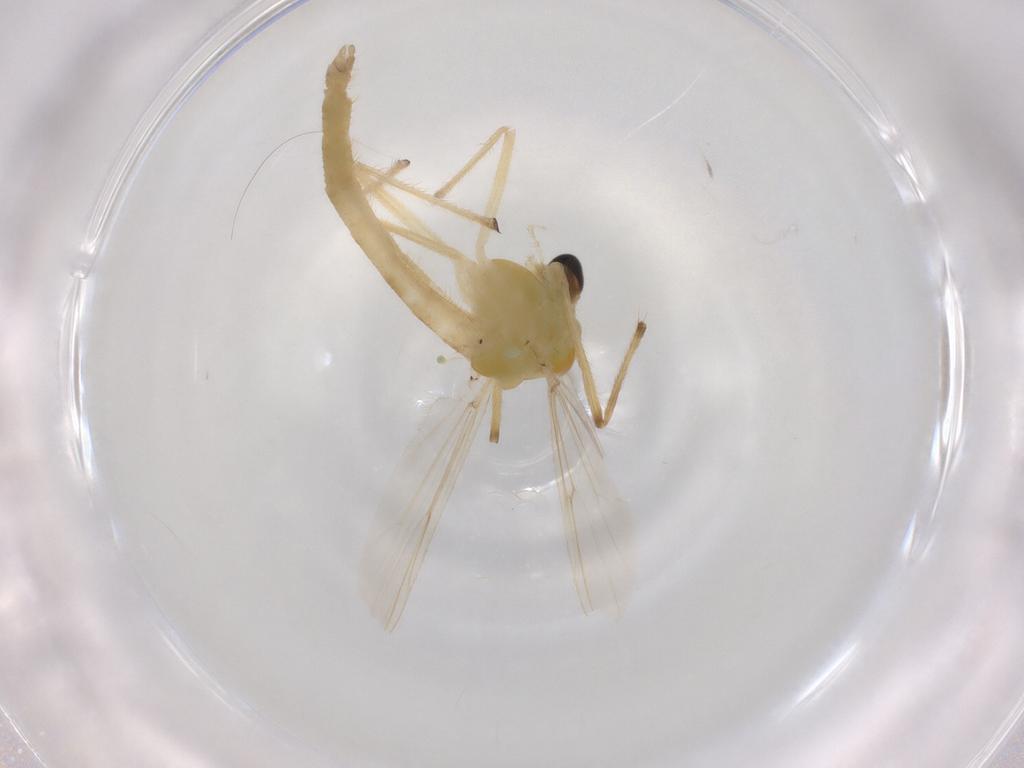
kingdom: Animalia
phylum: Arthropoda
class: Insecta
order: Diptera
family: Chironomidae
